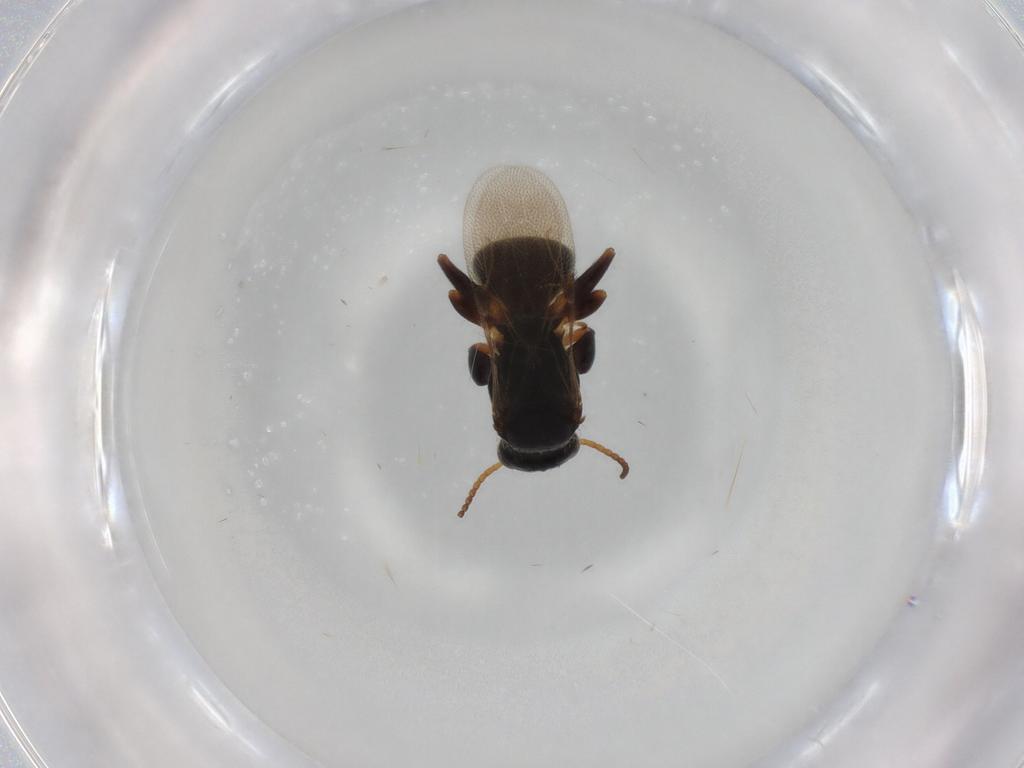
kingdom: Animalia
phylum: Arthropoda
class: Insecta
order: Hymenoptera
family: Bethylidae
